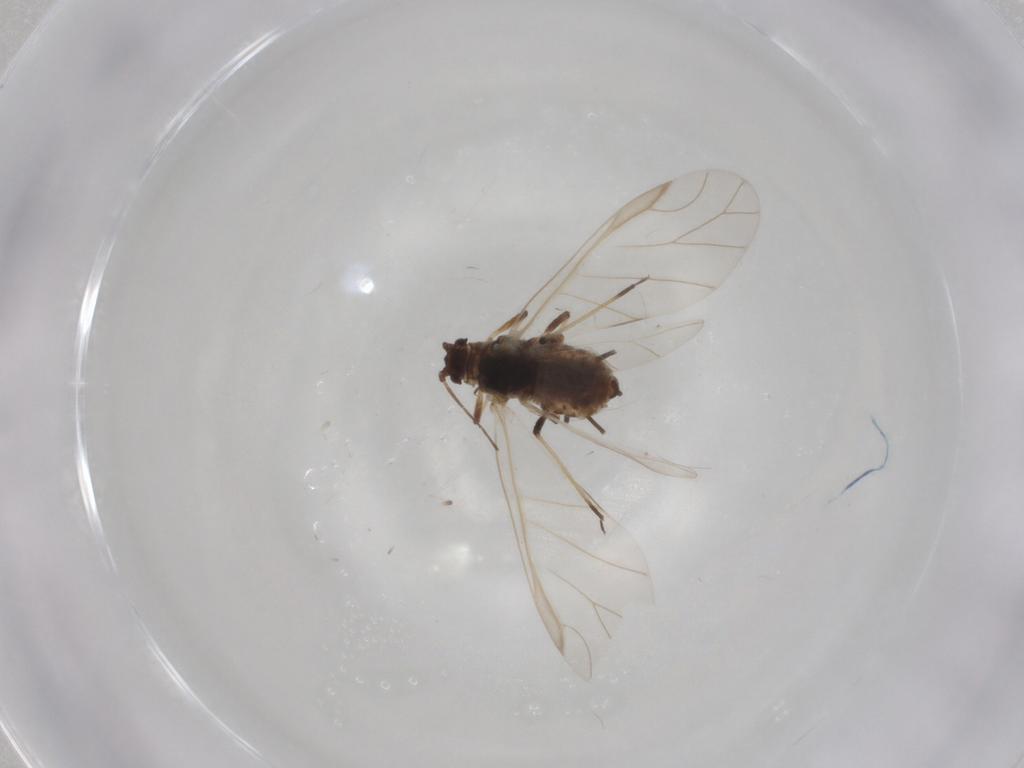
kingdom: Animalia
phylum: Arthropoda
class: Insecta
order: Hemiptera
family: Aphididae
